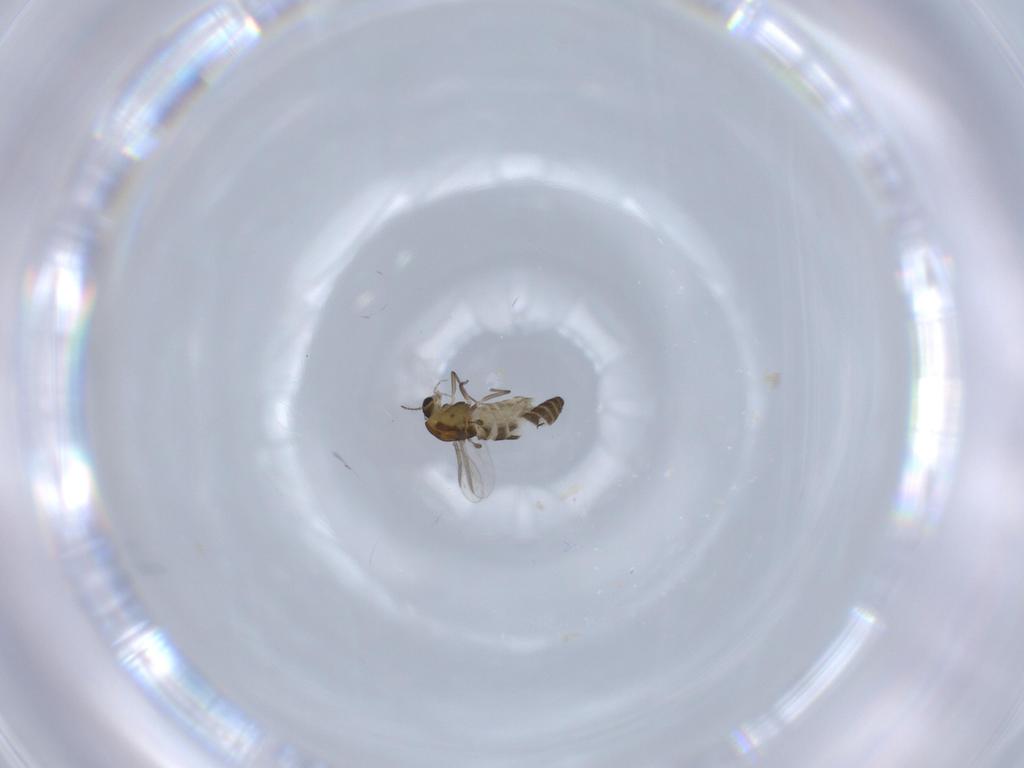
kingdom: Animalia
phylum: Arthropoda
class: Insecta
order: Diptera
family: Chironomidae
